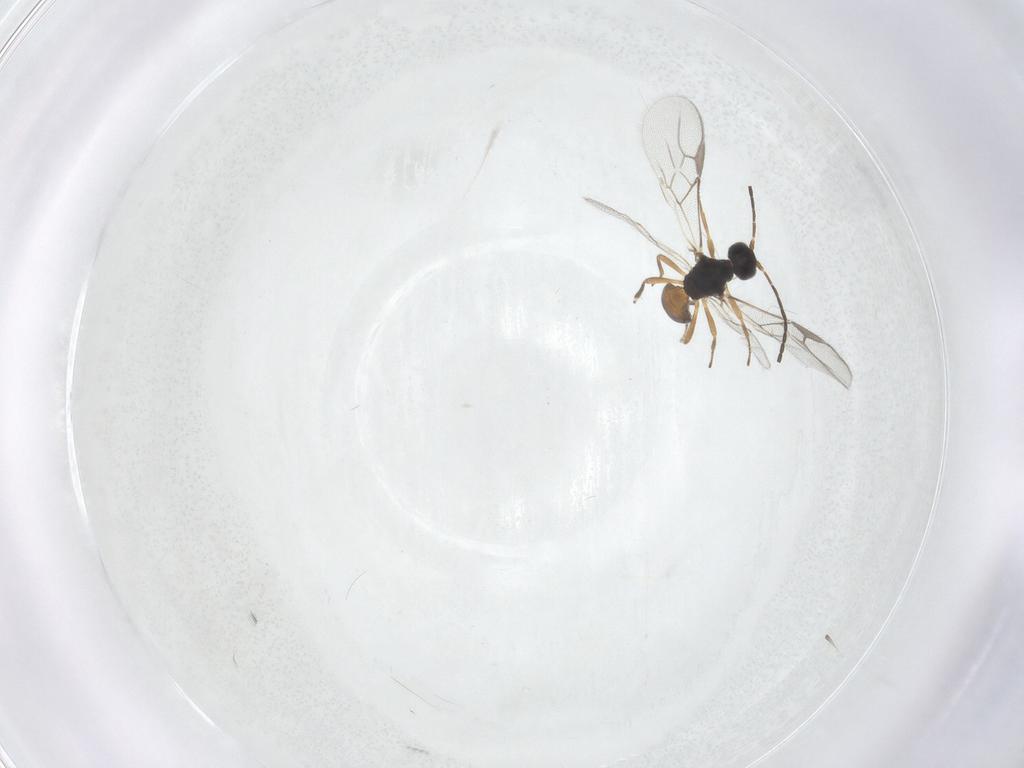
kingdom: Animalia
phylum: Arthropoda
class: Insecta
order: Hymenoptera
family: Braconidae
